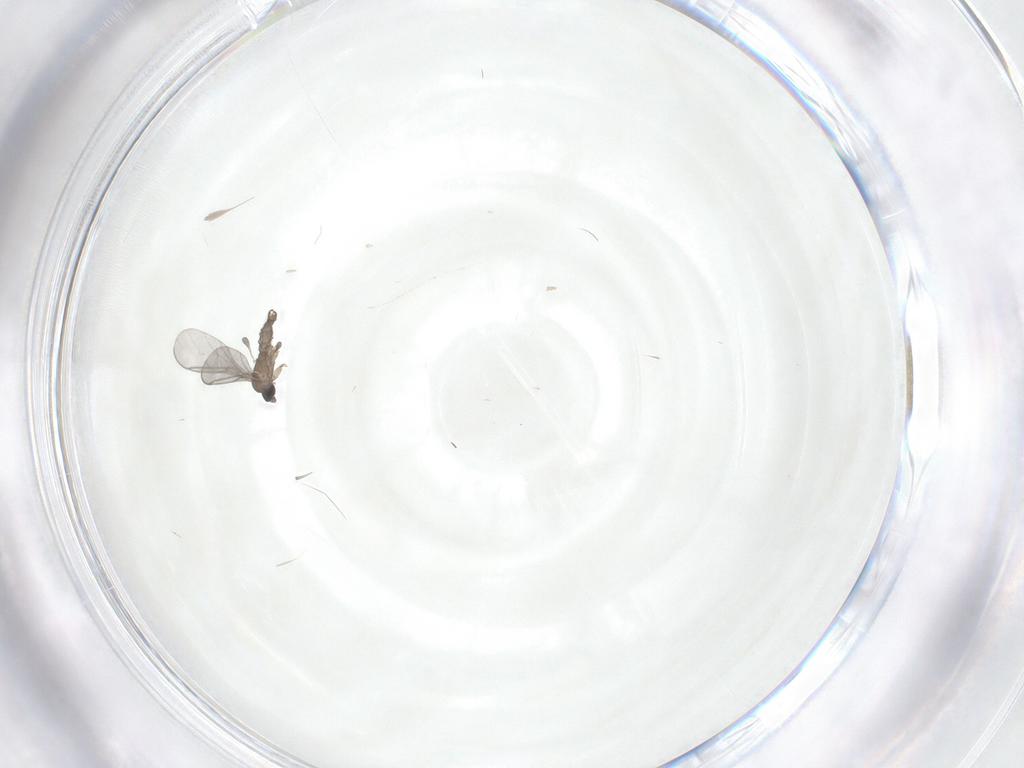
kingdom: Animalia
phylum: Arthropoda
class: Insecta
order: Diptera
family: Sciaridae
